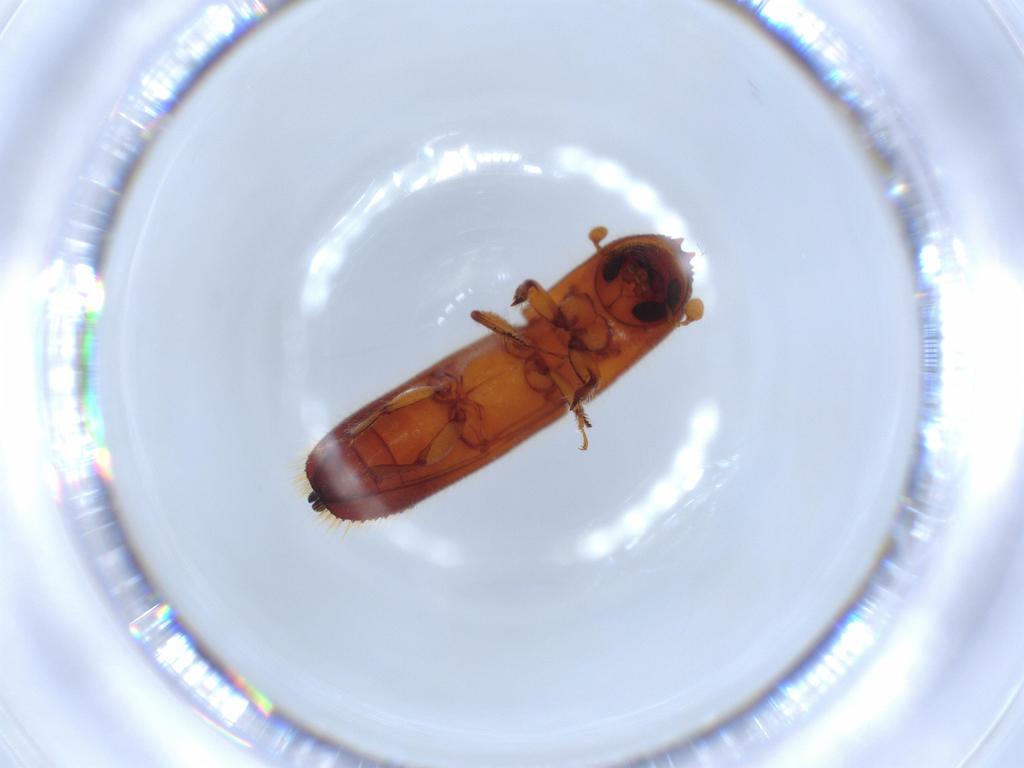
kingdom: Animalia
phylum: Arthropoda
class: Insecta
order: Coleoptera
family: Curculionidae
